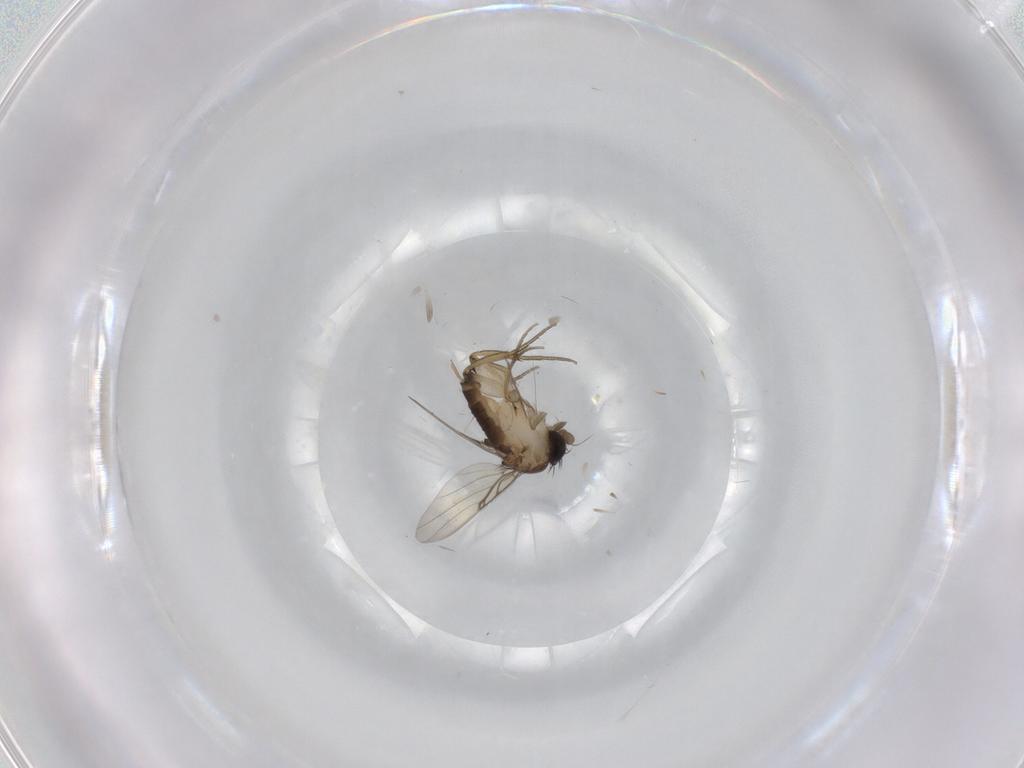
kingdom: Animalia
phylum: Arthropoda
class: Insecta
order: Diptera
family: Phoridae
